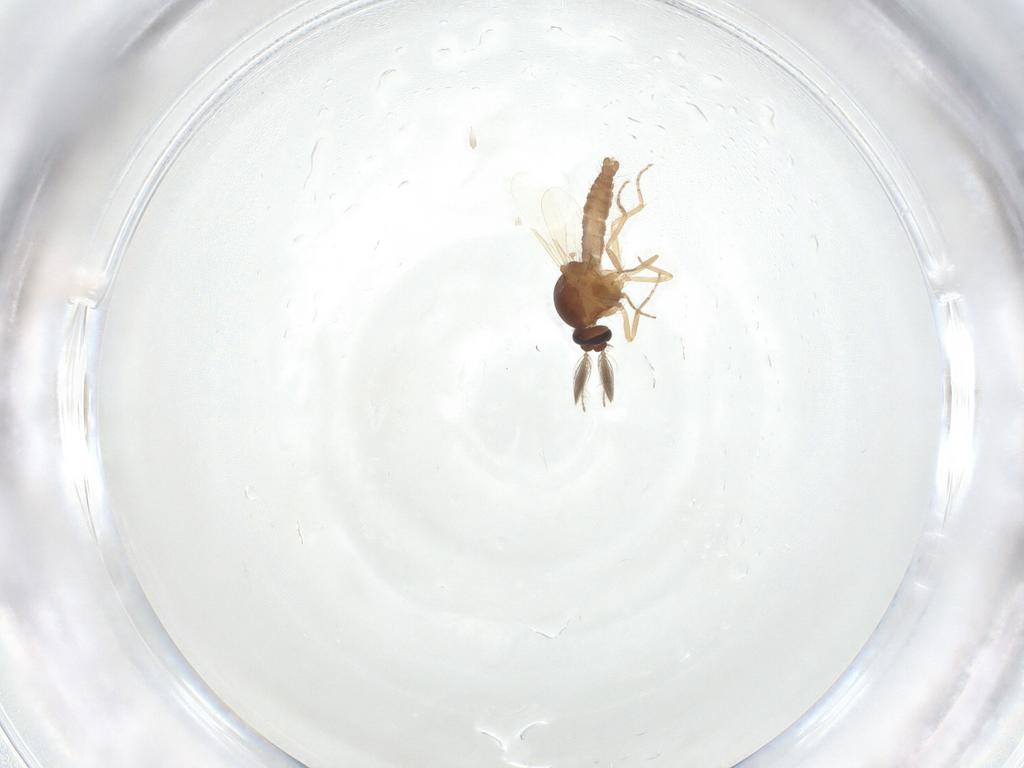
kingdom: Animalia
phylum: Arthropoda
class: Insecta
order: Diptera
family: Ceratopogonidae
